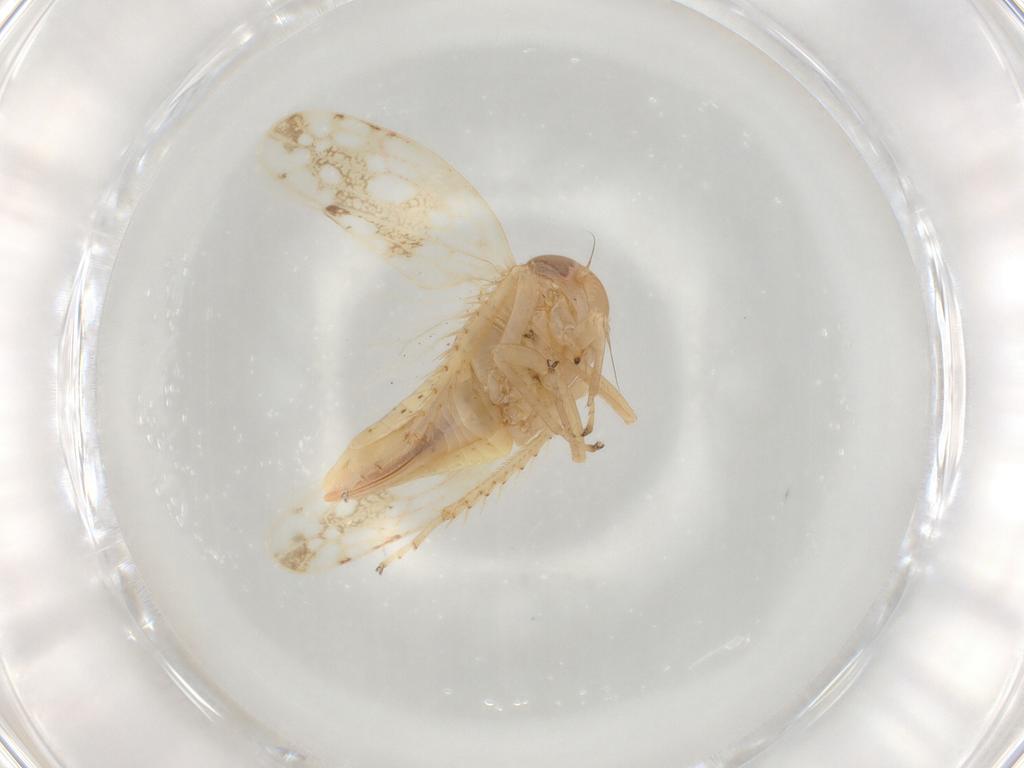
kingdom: Animalia
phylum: Arthropoda
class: Insecta
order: Hemiptera
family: Cicadellidae
